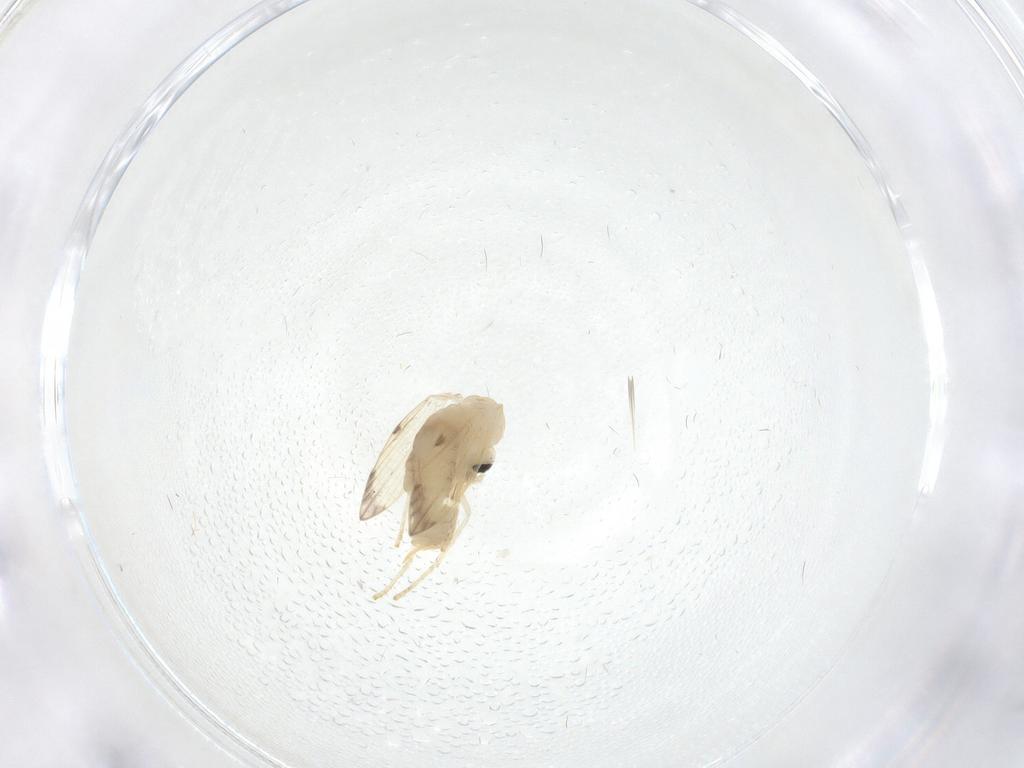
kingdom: Animalia
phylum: Arthropoda
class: Insecta
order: Diptera
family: Psychodidae
